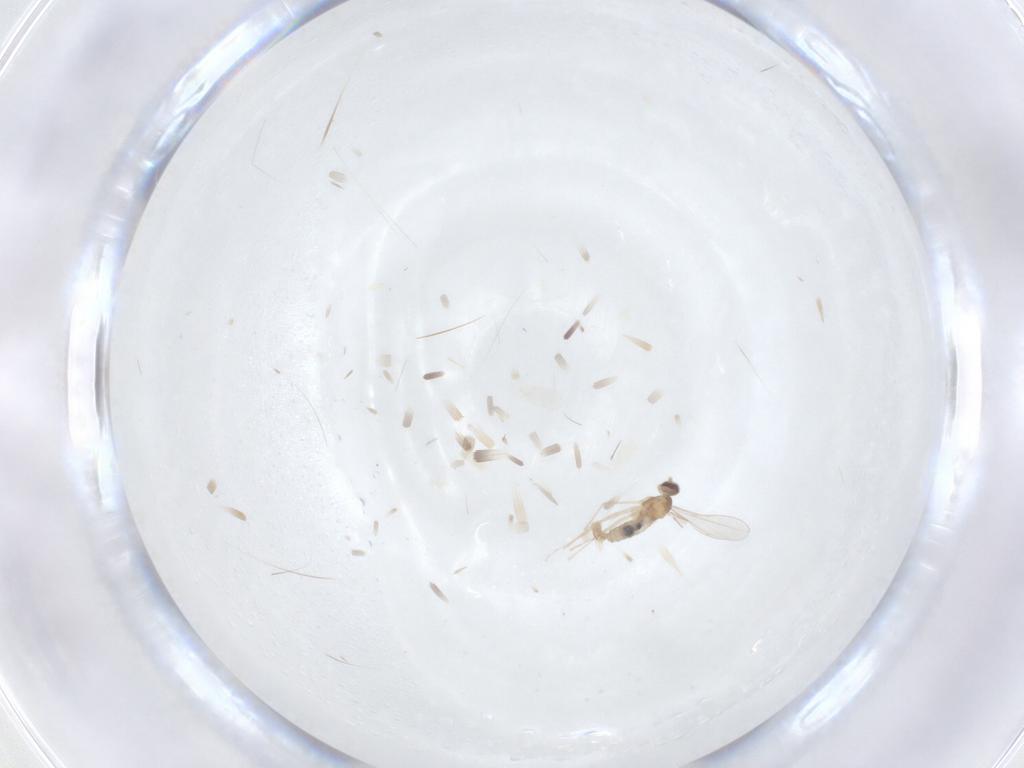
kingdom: Animalia
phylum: Arthropoda
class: Insecta
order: Diptera
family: Cecidomyiidae
